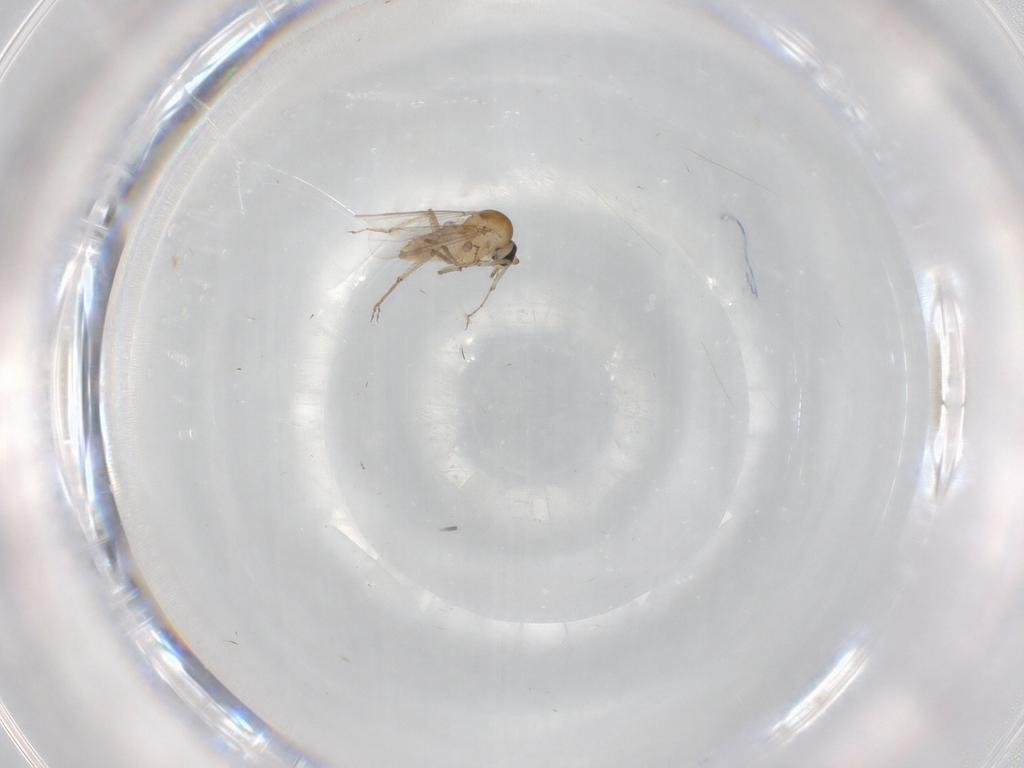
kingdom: Animalia
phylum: Arthropoda
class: Insecta
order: Diptera
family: Ceratopogonidae
